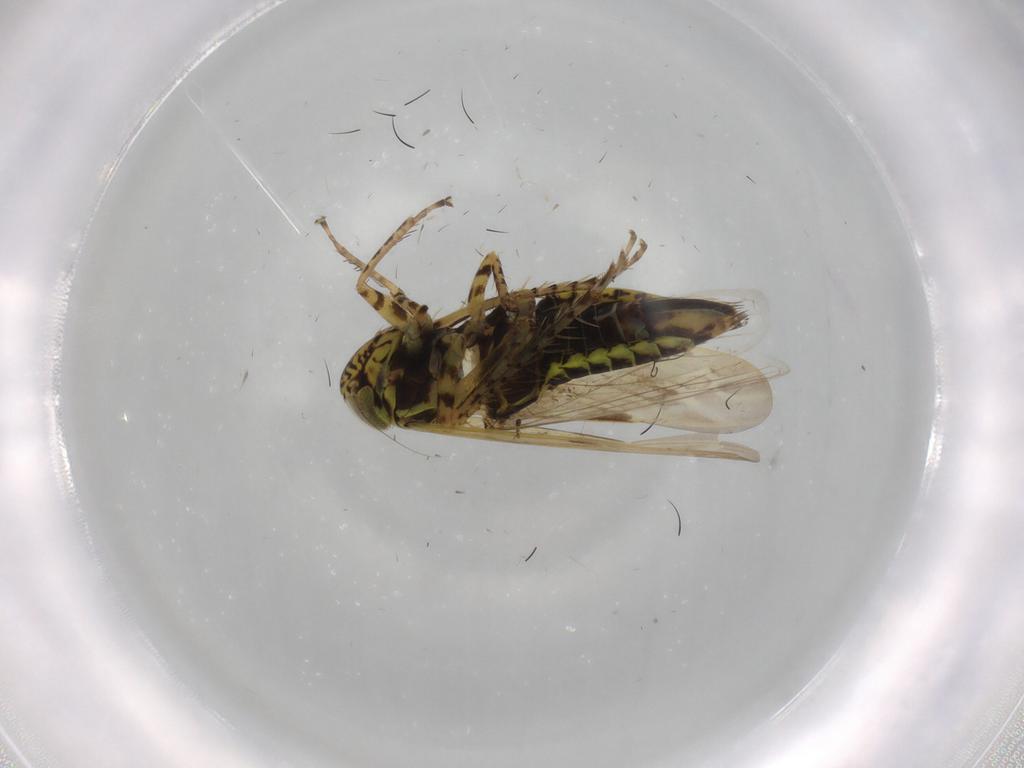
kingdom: Animalia
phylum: Arthropoda
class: Insecta
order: Hemiptera
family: Cicadellidae
